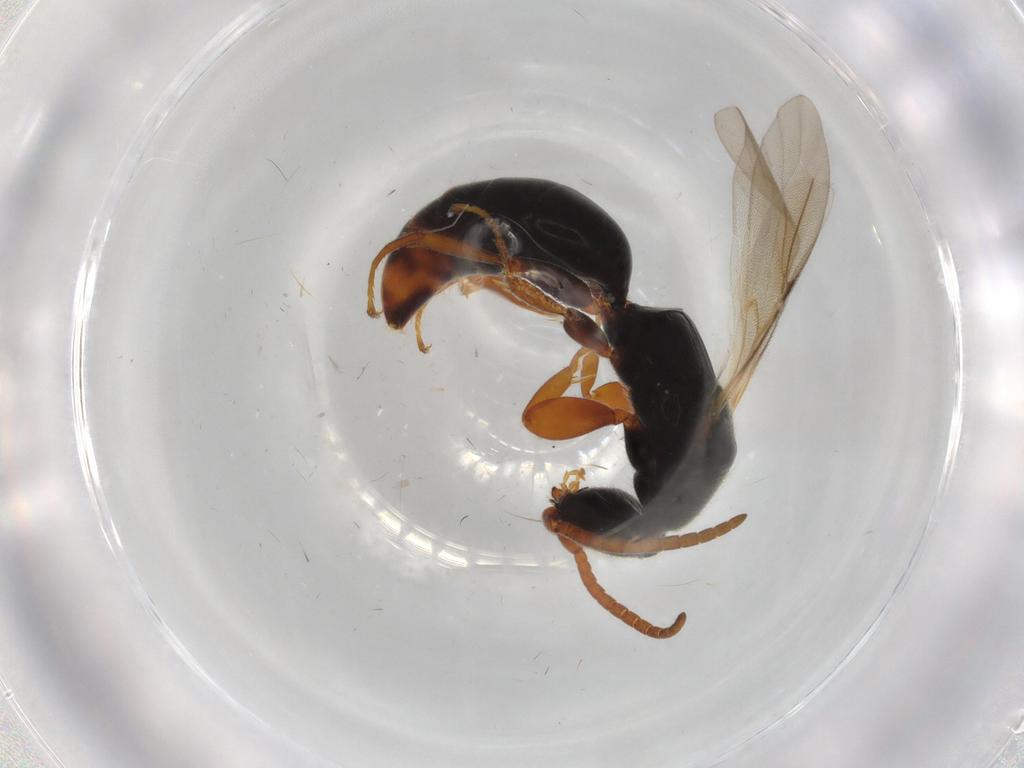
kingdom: Animalia
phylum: Arthropoda
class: Insecta
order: Hymenoptera
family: Bethylidae
